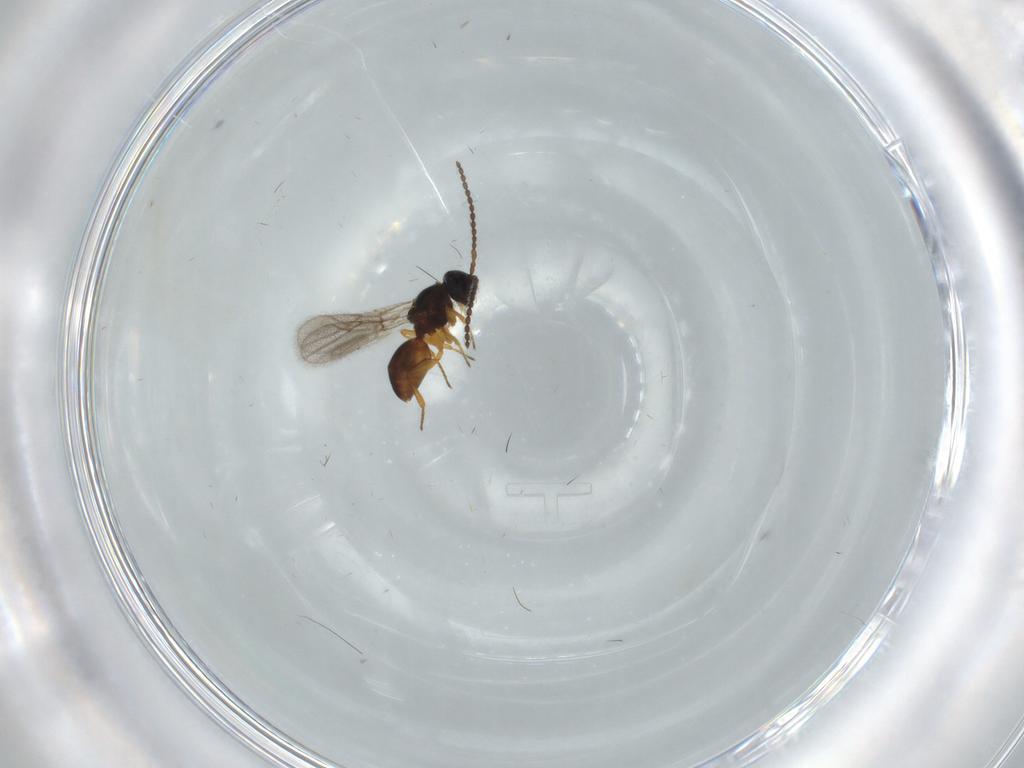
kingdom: Animalia
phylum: Arthropoda
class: Insecta
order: Hymenoptera
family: Figitidae
